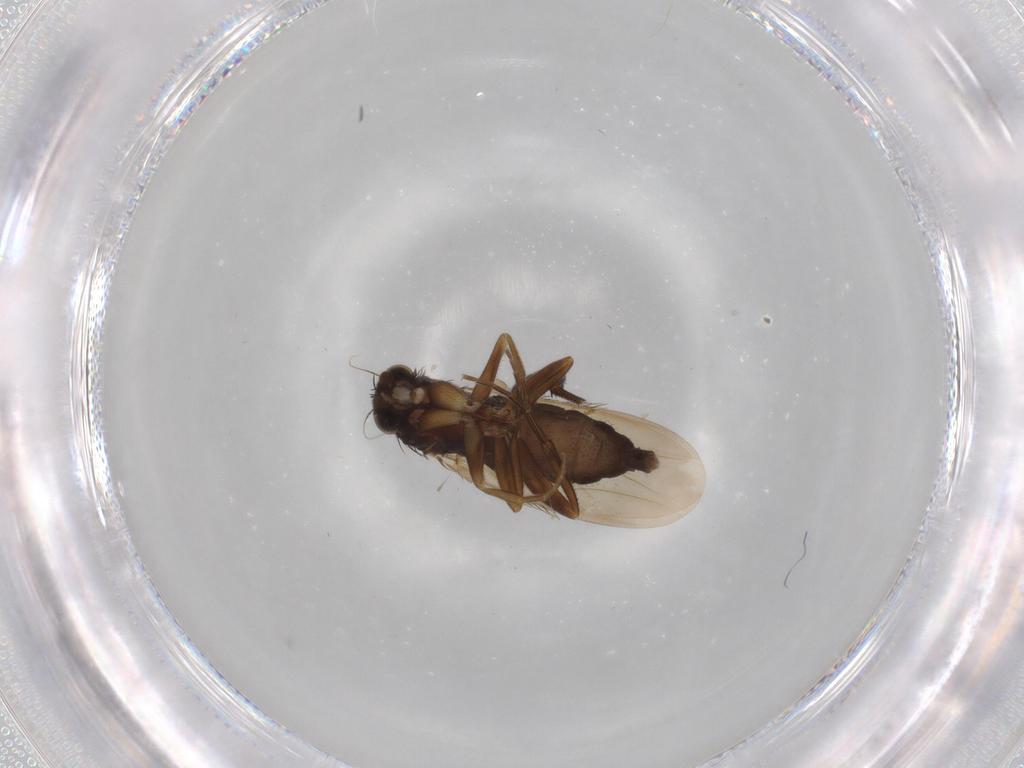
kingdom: Animalia
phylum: Arthropoda
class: Insecta
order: Diptera
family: Phoridae
